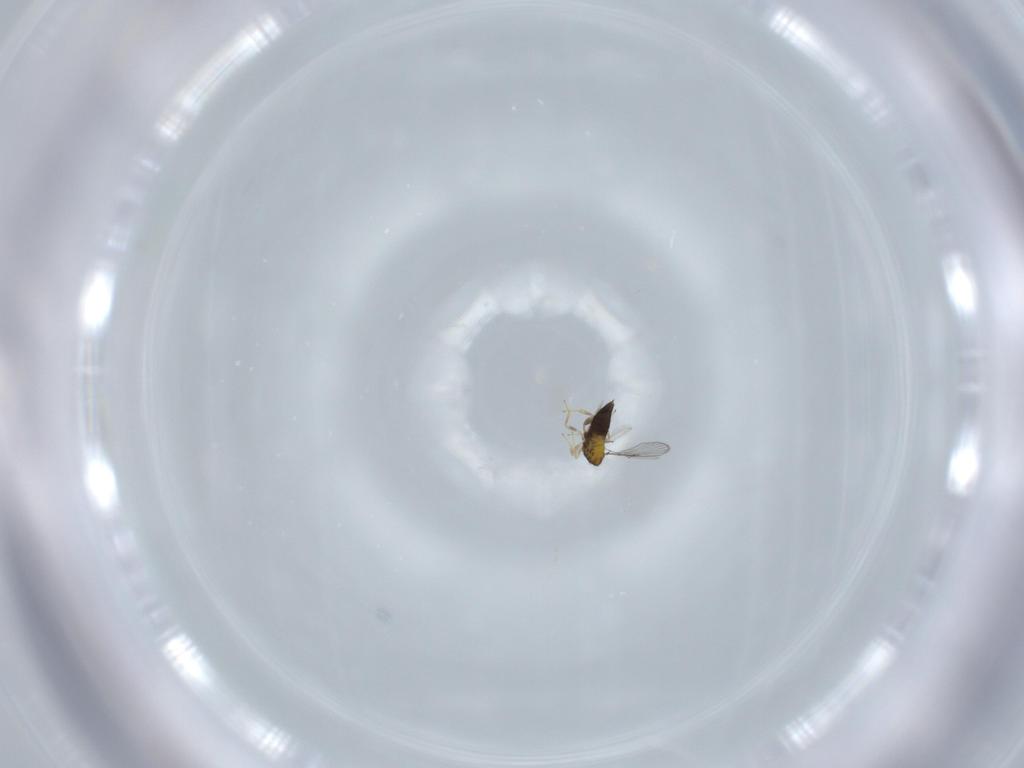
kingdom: Animalia
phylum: Arthropoda
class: Insecta
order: Hymenoptera
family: Trichogrammatidae
